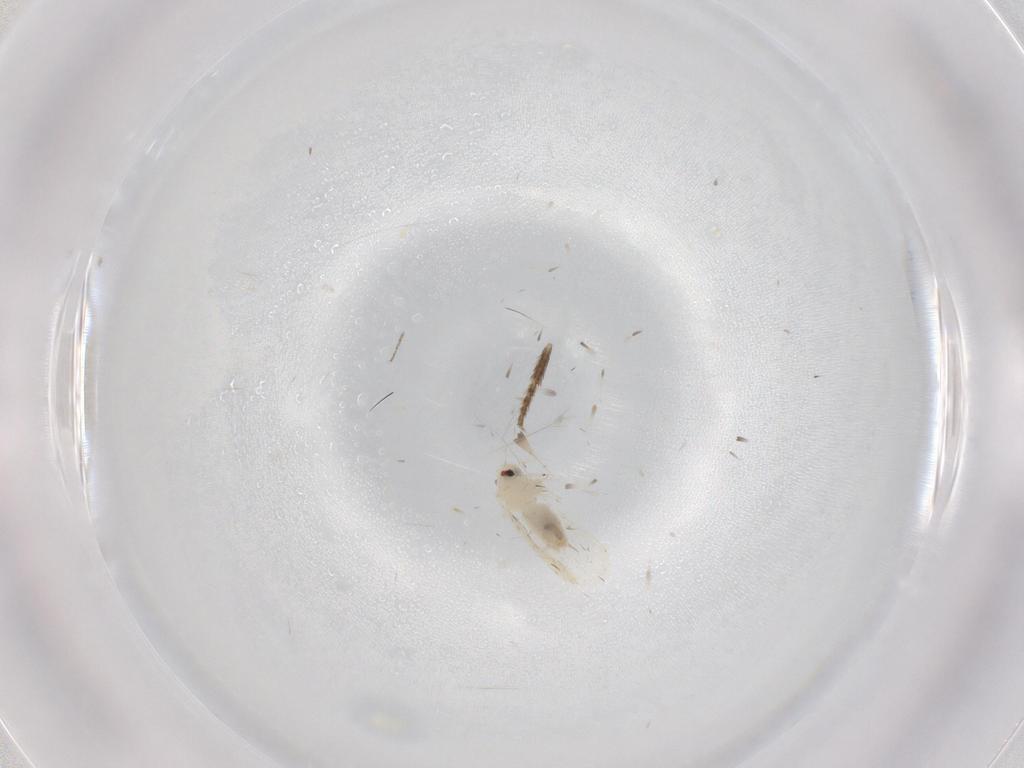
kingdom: Animalia
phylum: Arthropoda
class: Insecta
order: Hemiptera
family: Aleyrodidae
